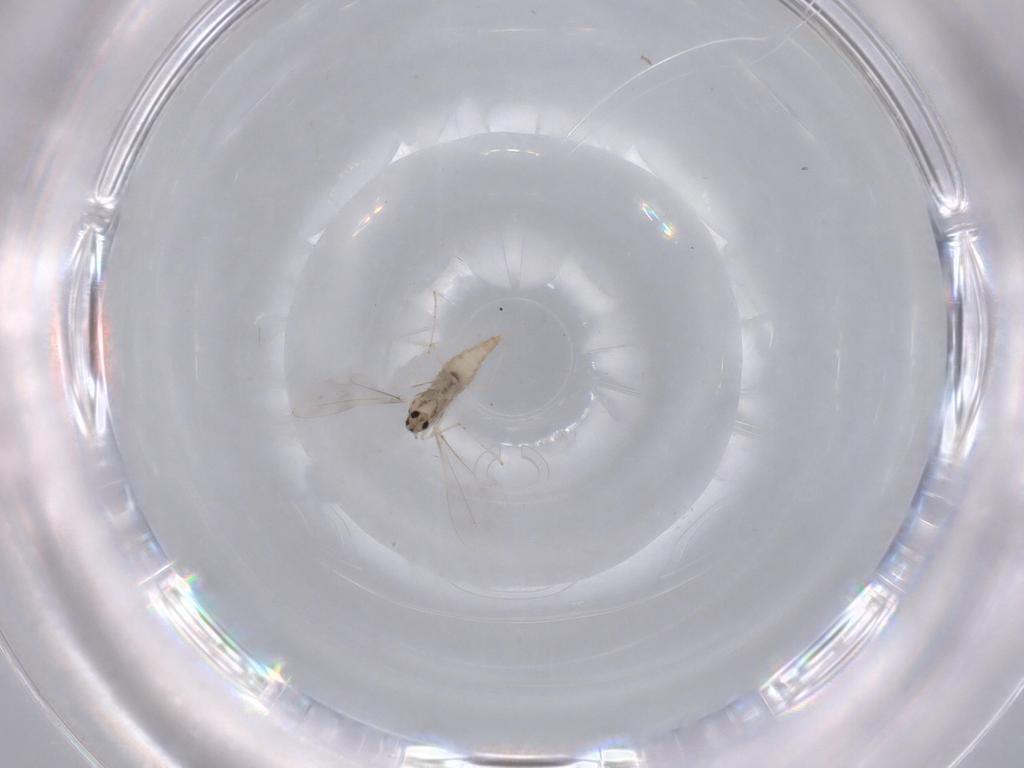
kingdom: Animalia
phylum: Arthropoda
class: Insecta
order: Diptera
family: Cecidomyiidae
